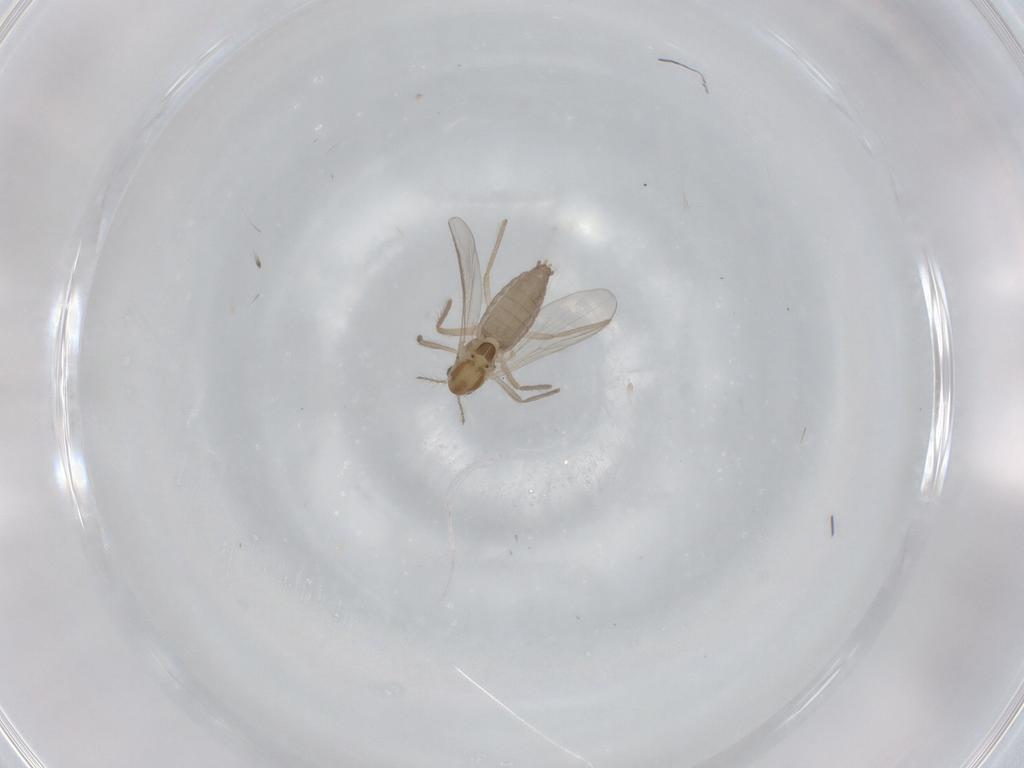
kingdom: Animalia
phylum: Arthropoda
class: Insecta
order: Diptera
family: Chironomidae
